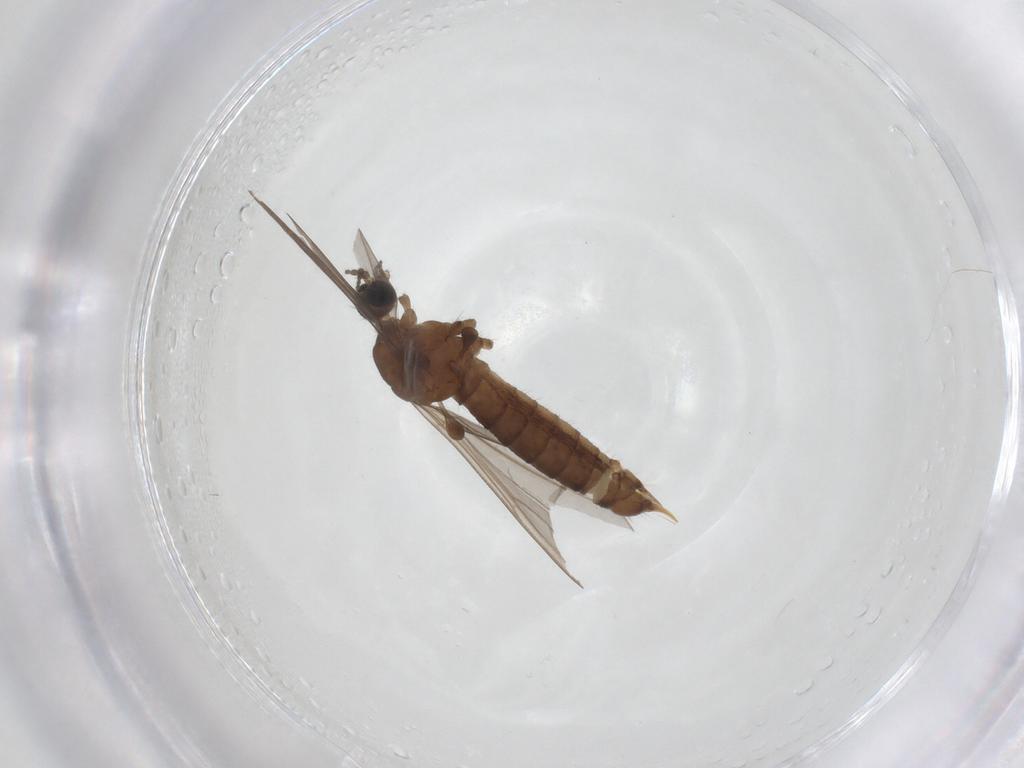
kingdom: Animalia
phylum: Arthropoda
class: Insecta
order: Diptera
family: Limoniidae
